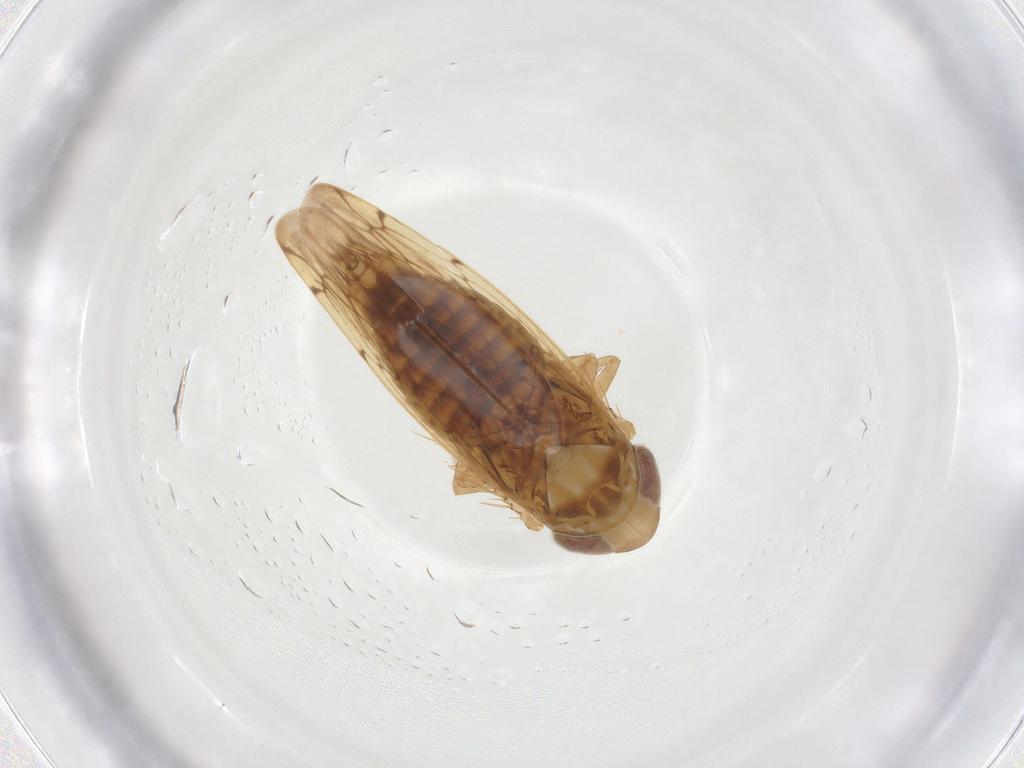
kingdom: Animalia
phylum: Arthropoda
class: Insecta
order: Hemiptera
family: Cicadellidae
